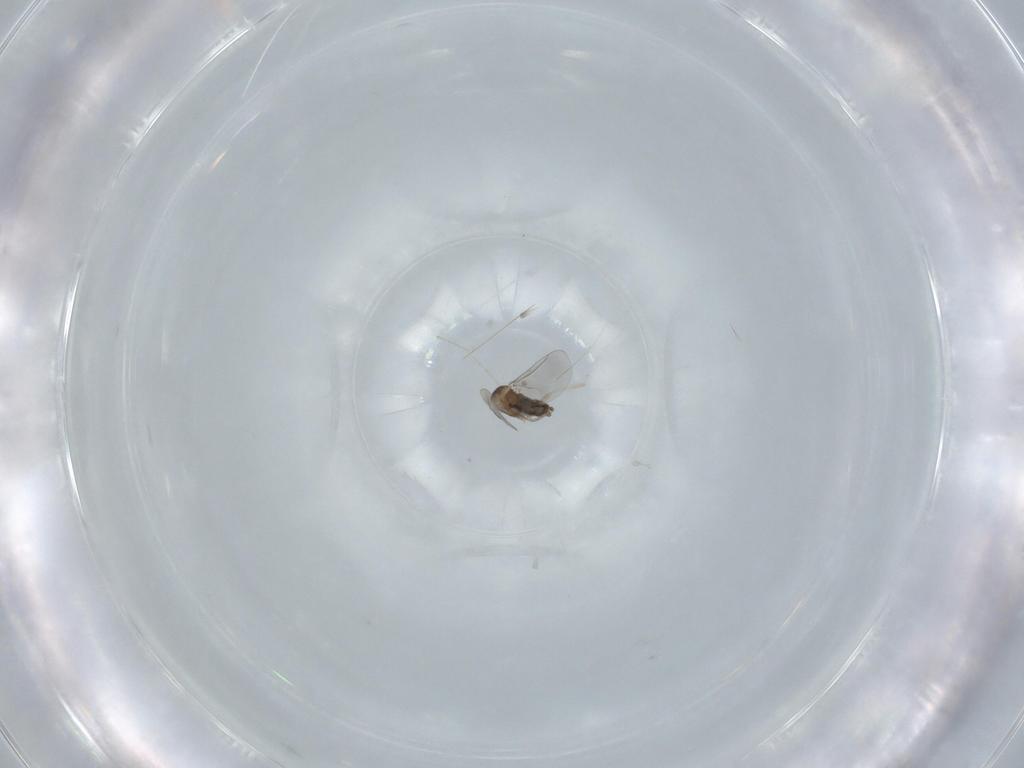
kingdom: Animalia
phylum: Arthropoda
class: Insecta
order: Diptera
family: Cecidomyiidae
